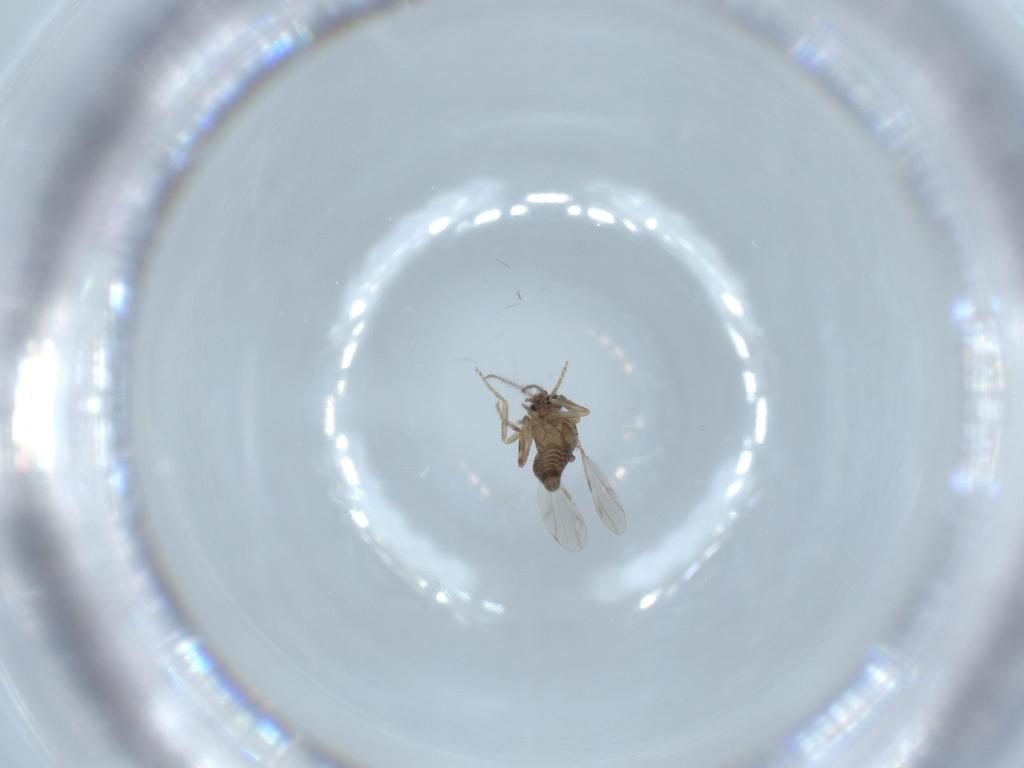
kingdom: Animalia
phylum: Arthropoda
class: Insecta
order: Diptera
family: Ceratopogonidae
